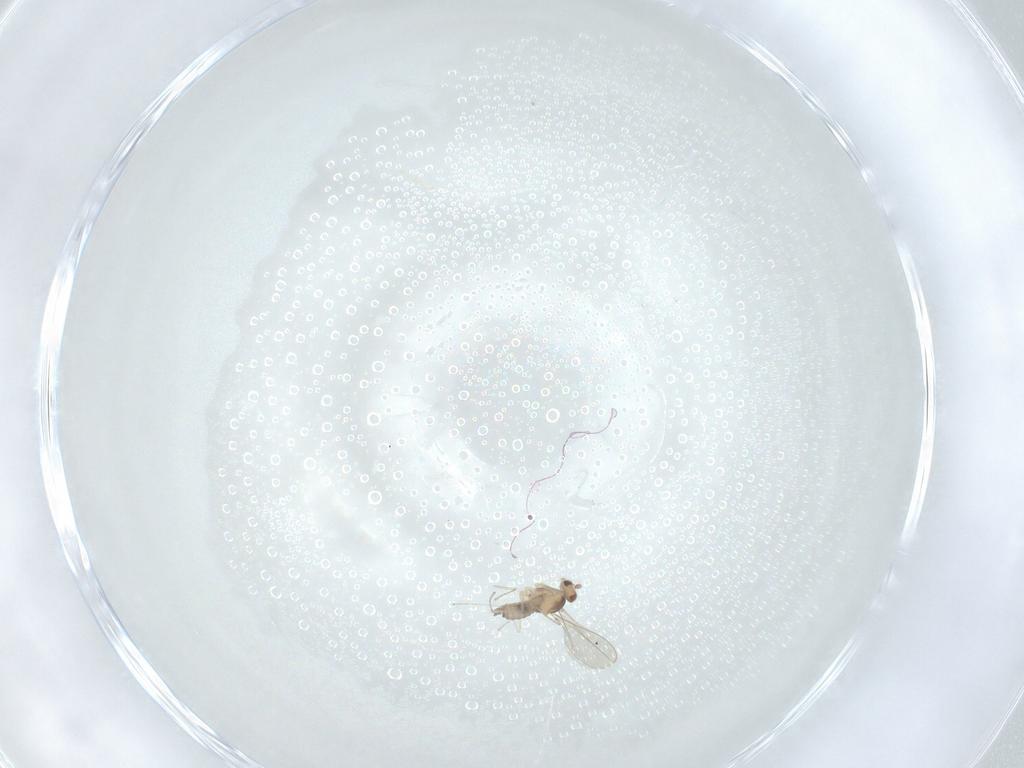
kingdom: Animalia
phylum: Arthropoda
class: Insecta
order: Diptera
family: Cecidomyiidae
